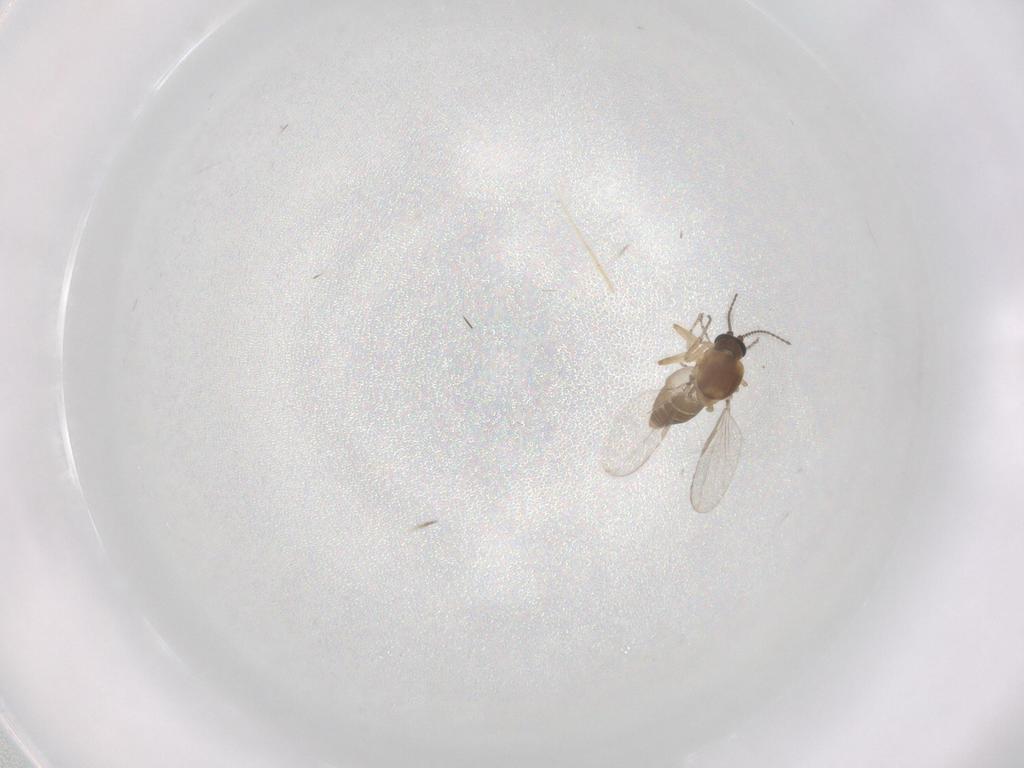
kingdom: Animalia
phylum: Arthropoda
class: Insecta
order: Diptera
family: Ceratopogonidae
